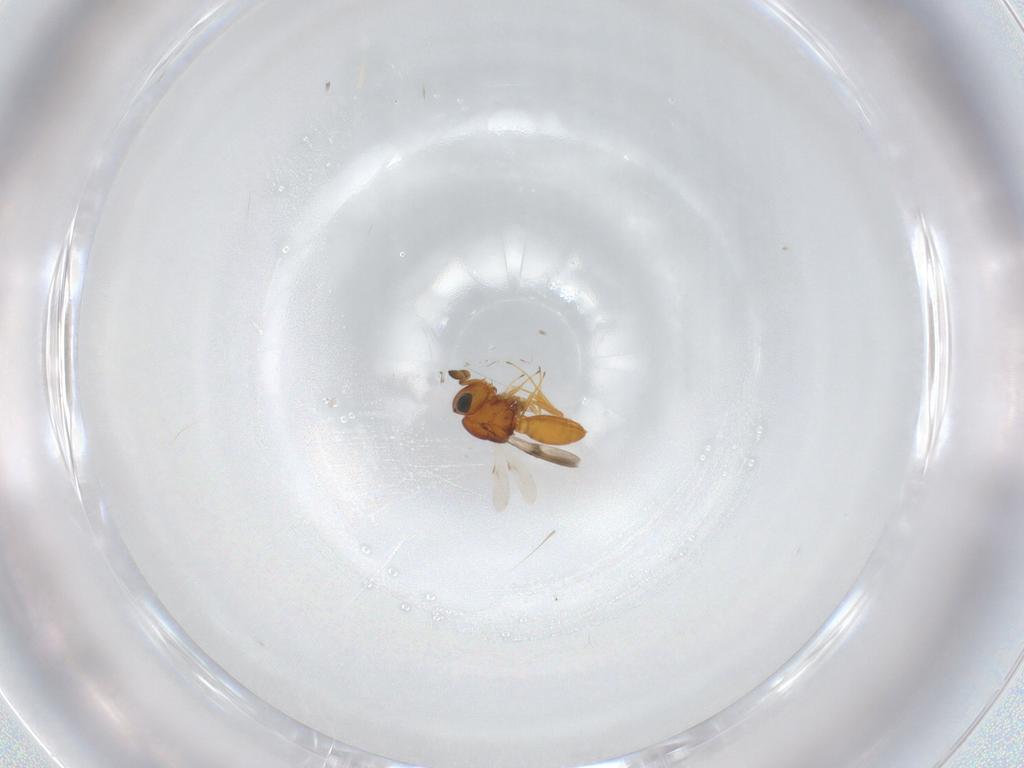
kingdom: Animalia
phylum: Arthropoda
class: Insecta
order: Hymenoptera
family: Scelionidae
